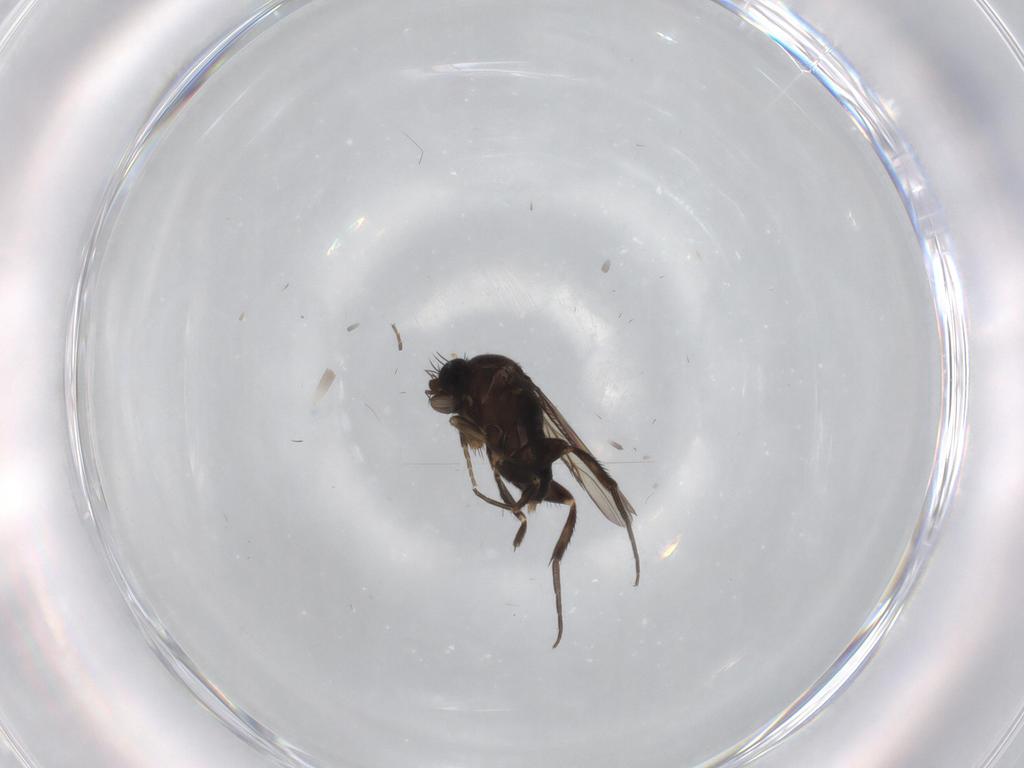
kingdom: Animalia
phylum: Arthropoda
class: Insecta
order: Diptera
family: Phoridae
